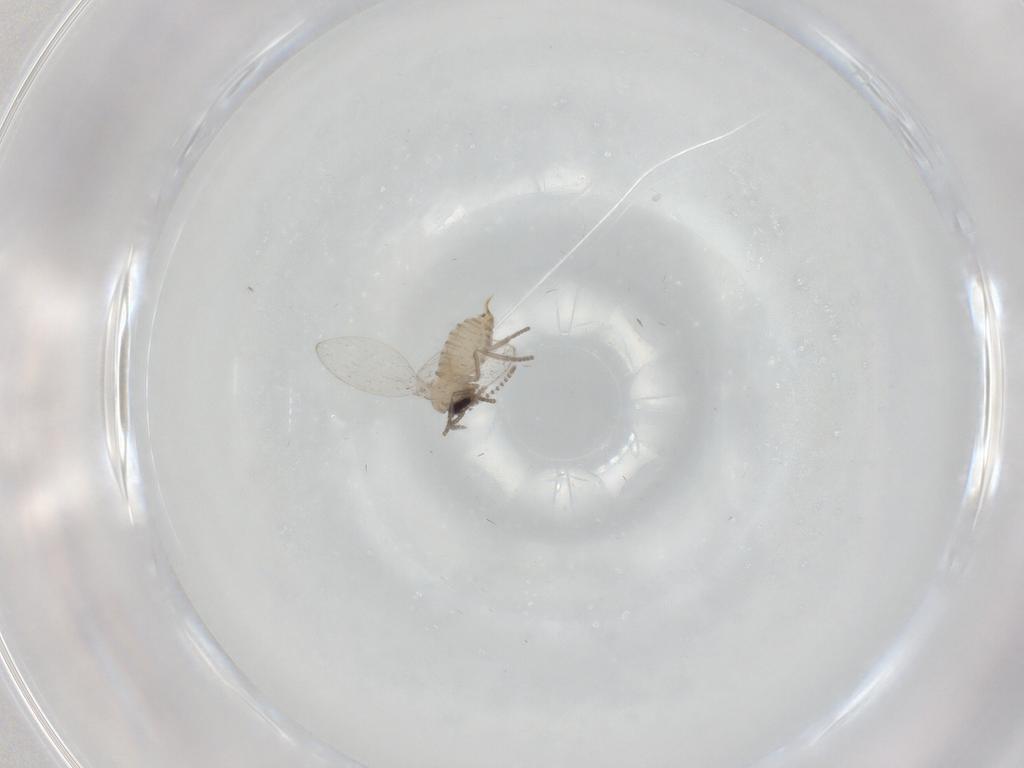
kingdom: Animalia
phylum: Arthropoda
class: Insecta
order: Diptera
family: Psychodidae
